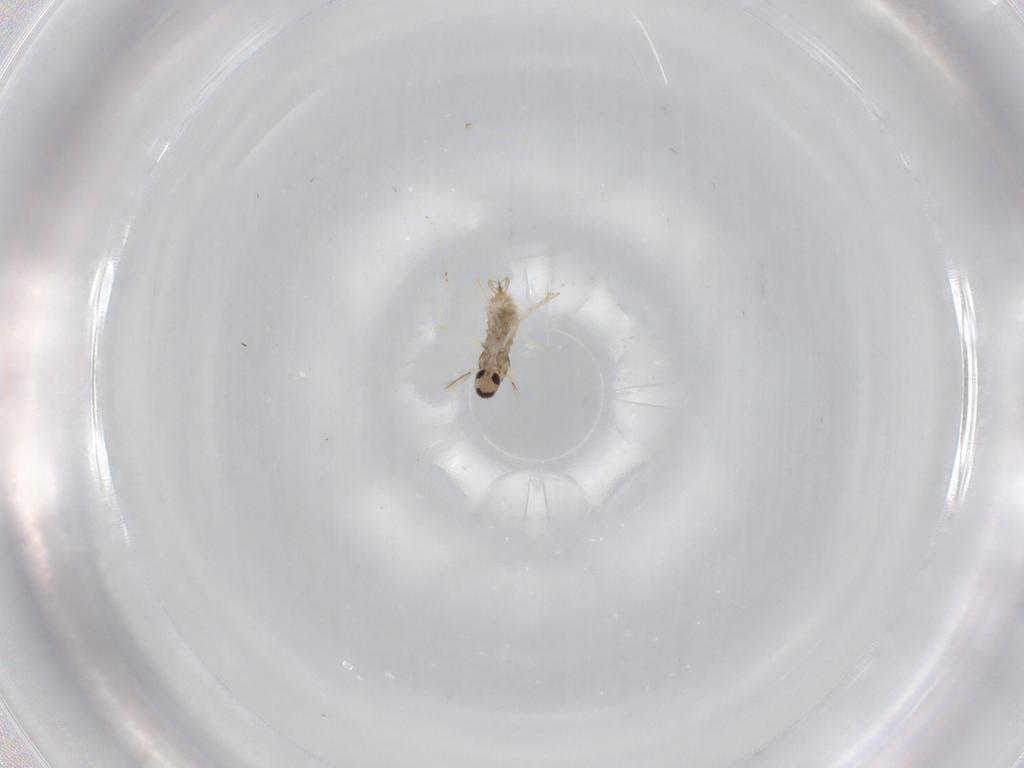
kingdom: Animalia
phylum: Arthropoda
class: Insecta
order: Diptera
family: Cecidomyiidae
